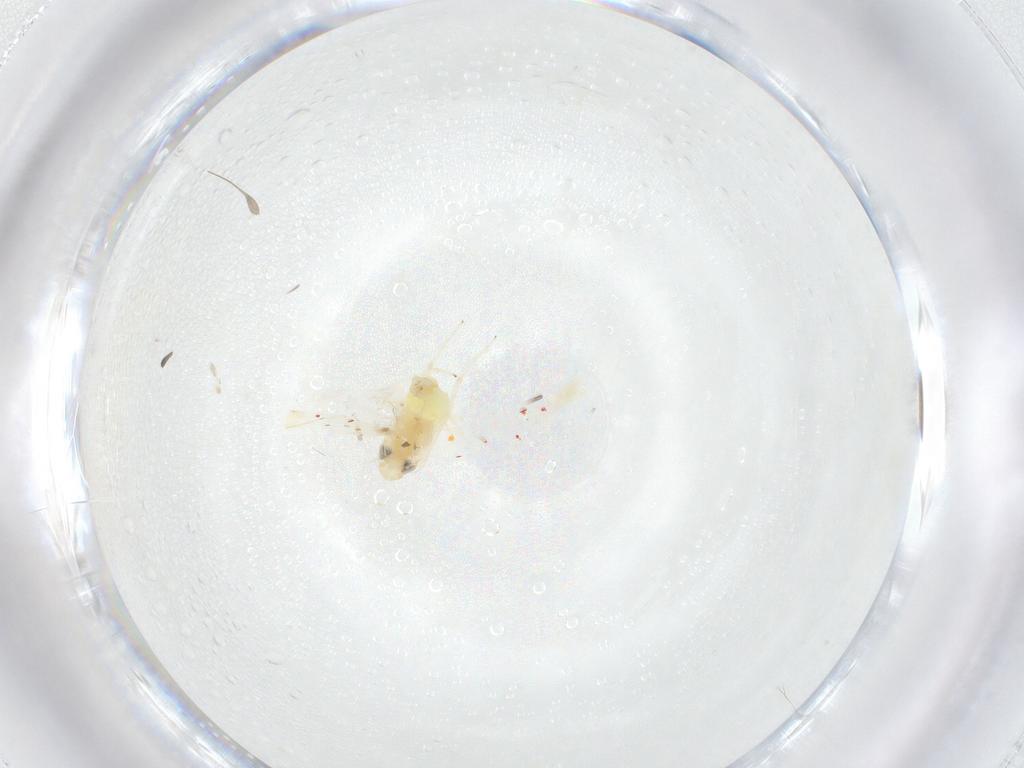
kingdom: Animalia
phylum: Arthropoda
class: Insecta
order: Hemiptera
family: Cicadellidae
